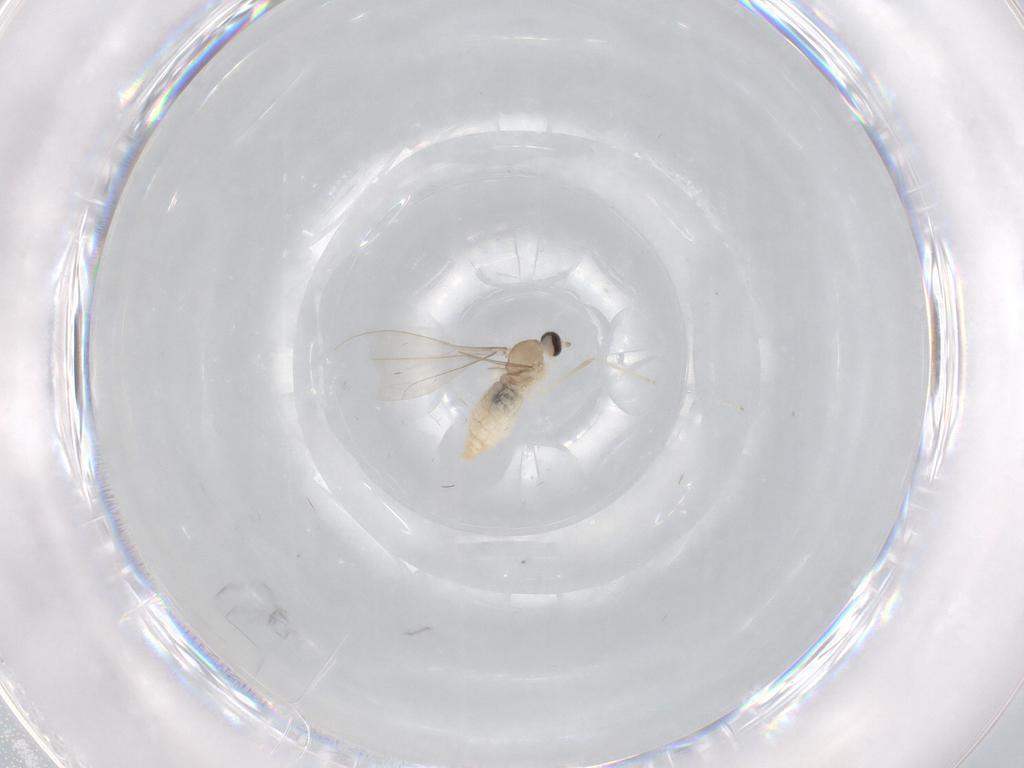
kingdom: Animalia
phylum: Arthropoda
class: Insecta
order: Diptera
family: Cecidomyiidae
